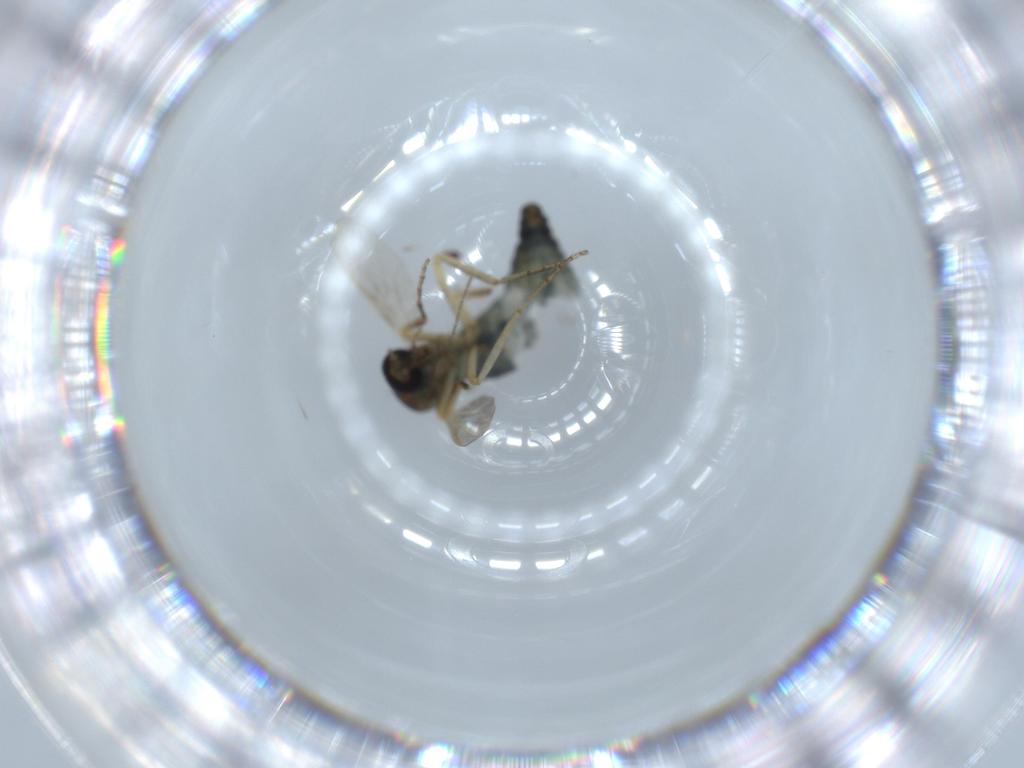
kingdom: Animalia
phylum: Arthropoda
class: Insecta
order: Diptera
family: Ceratopogonidae
